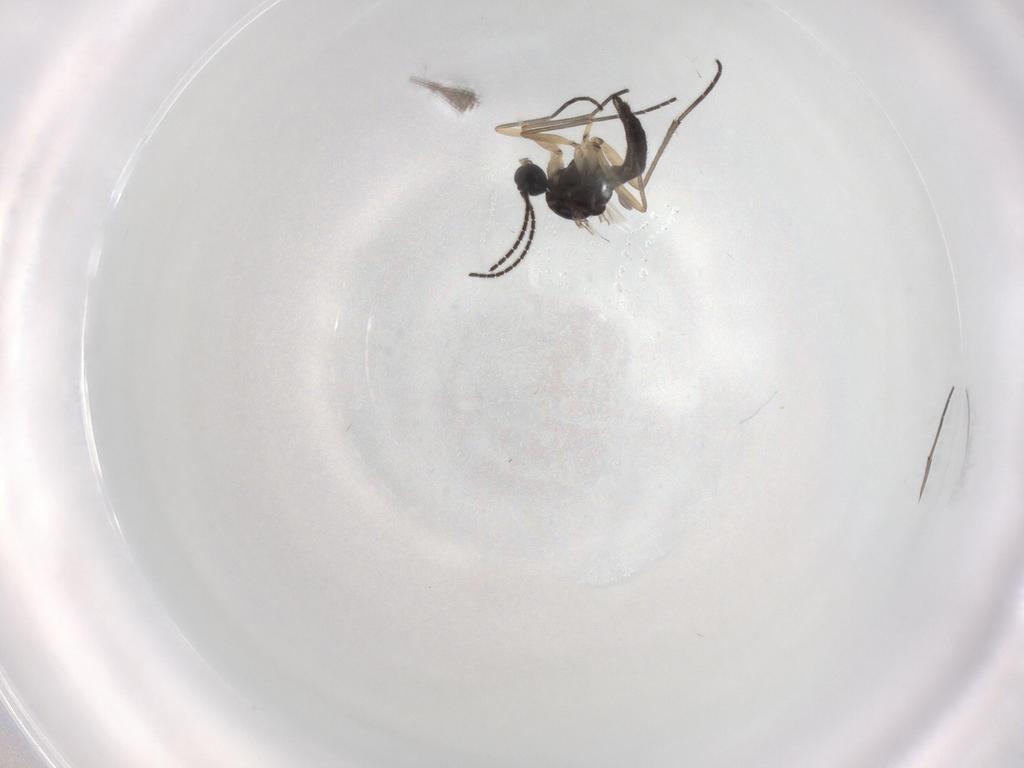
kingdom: Animalia
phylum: Arthropoda
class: Insecta
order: Diptera
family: Sciaridae
